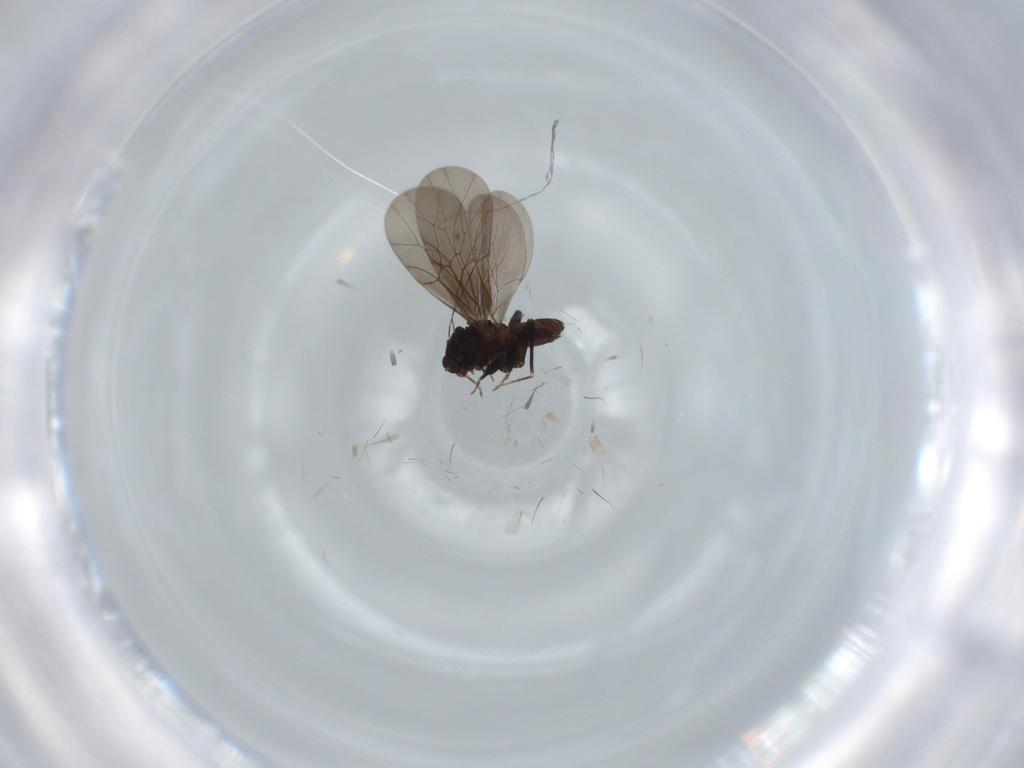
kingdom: Animalia
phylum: Arthropoda
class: Insecta
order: Psocodea
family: Lepidopsocidae
